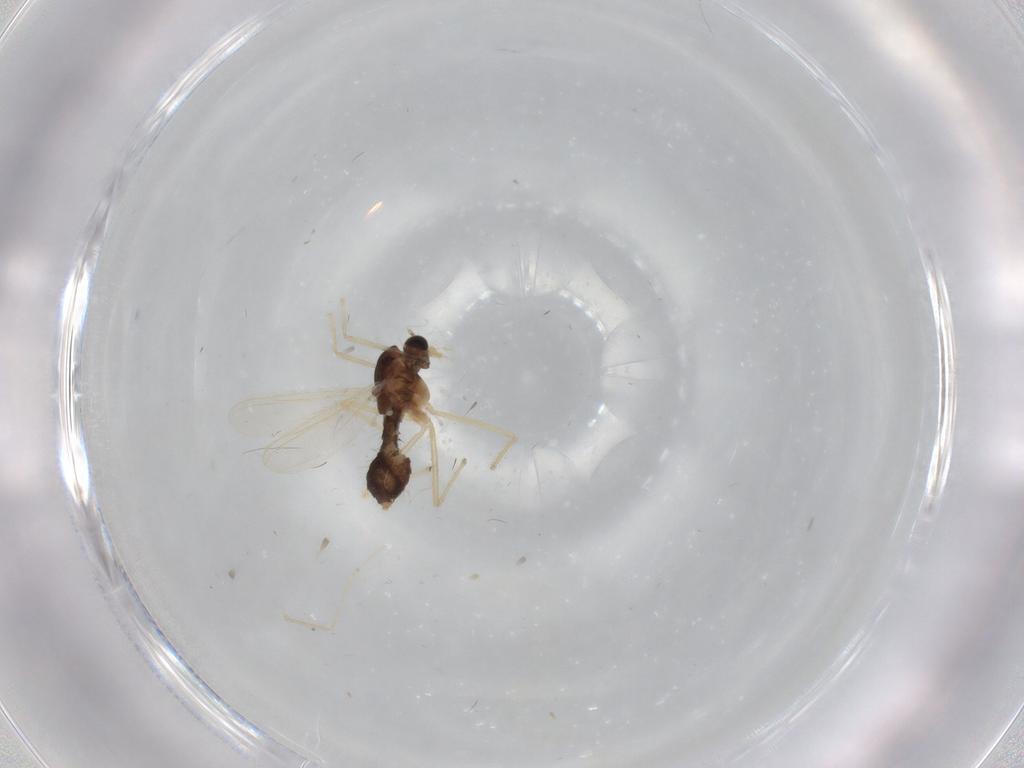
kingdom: Animalia
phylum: Arthropoda
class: Insecta
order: Diptera
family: Chironomidae
